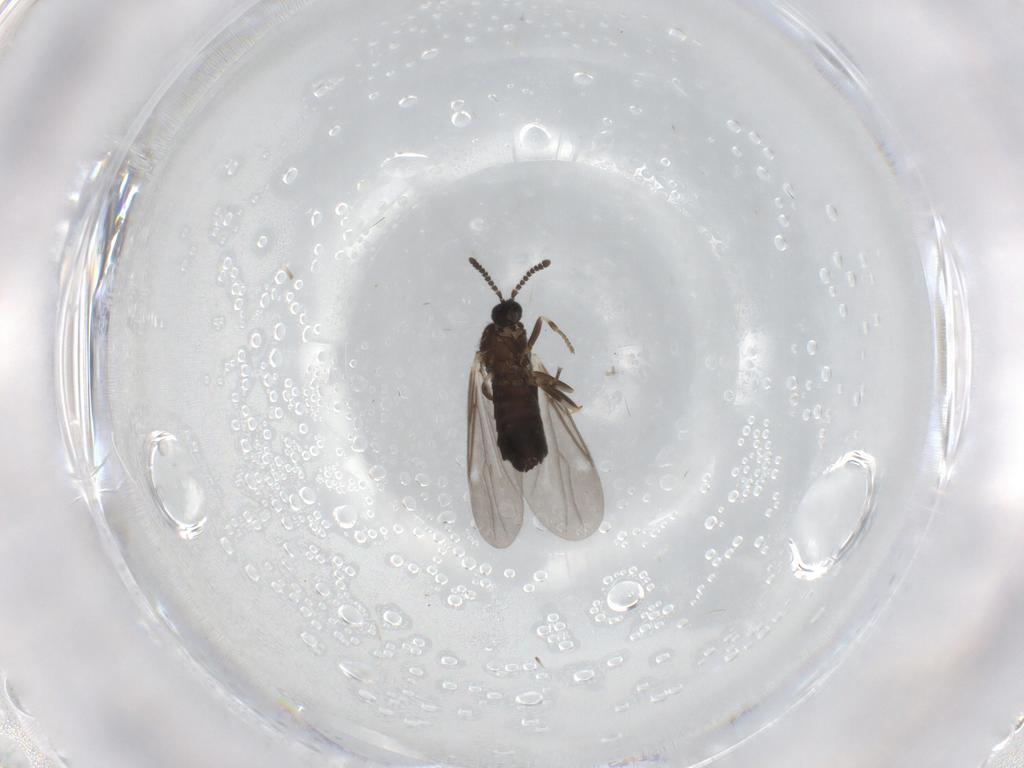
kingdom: Animalia
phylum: Arthropoda
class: Insecta
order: Diptera
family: Scatopsidae
